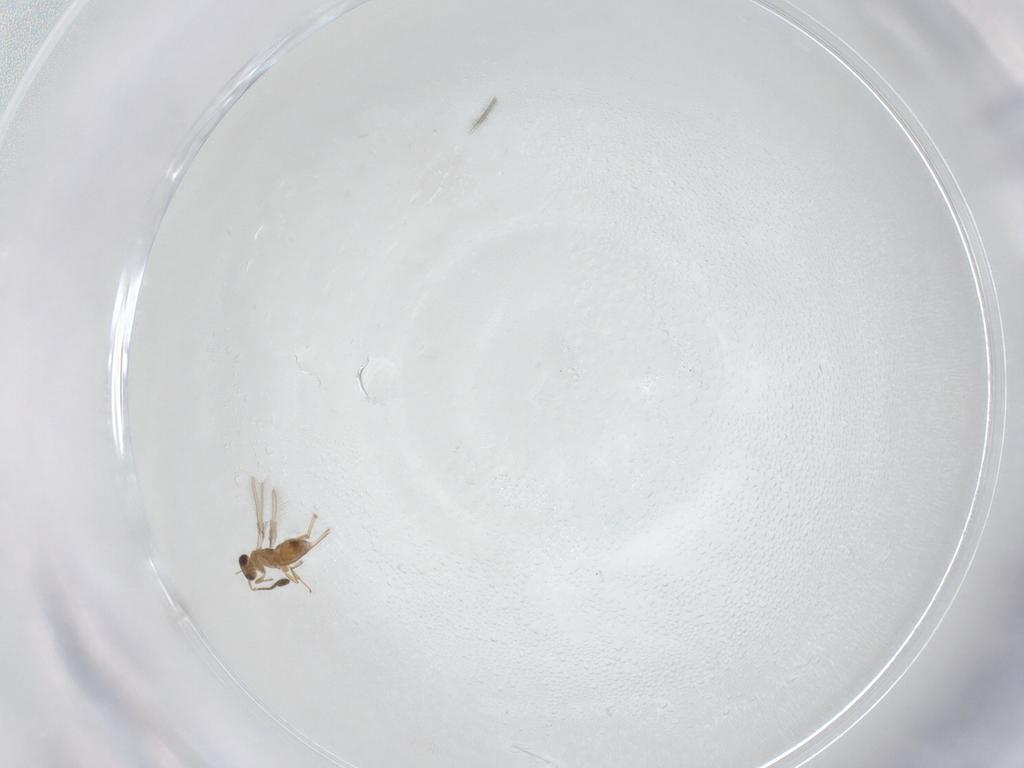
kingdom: Animalia
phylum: Arthropoda
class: Insecta
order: Hymenoptera
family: Mymaridae
